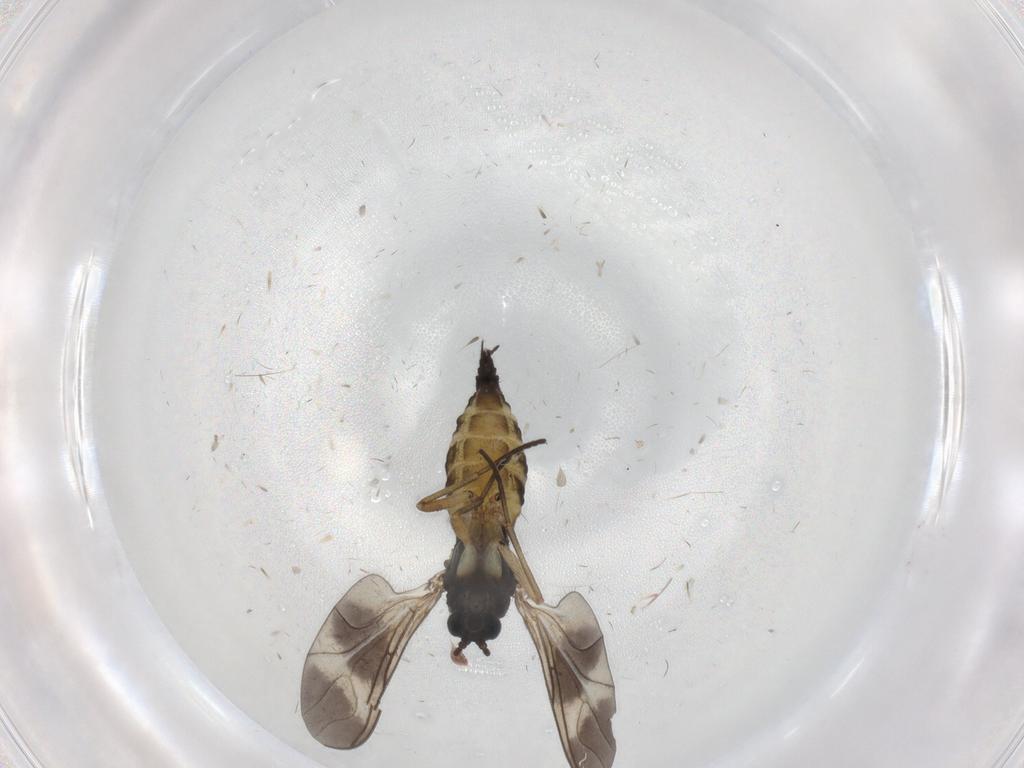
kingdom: Animalia
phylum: Arthropoda
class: Insecta
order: Diptera
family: Sciaridae
